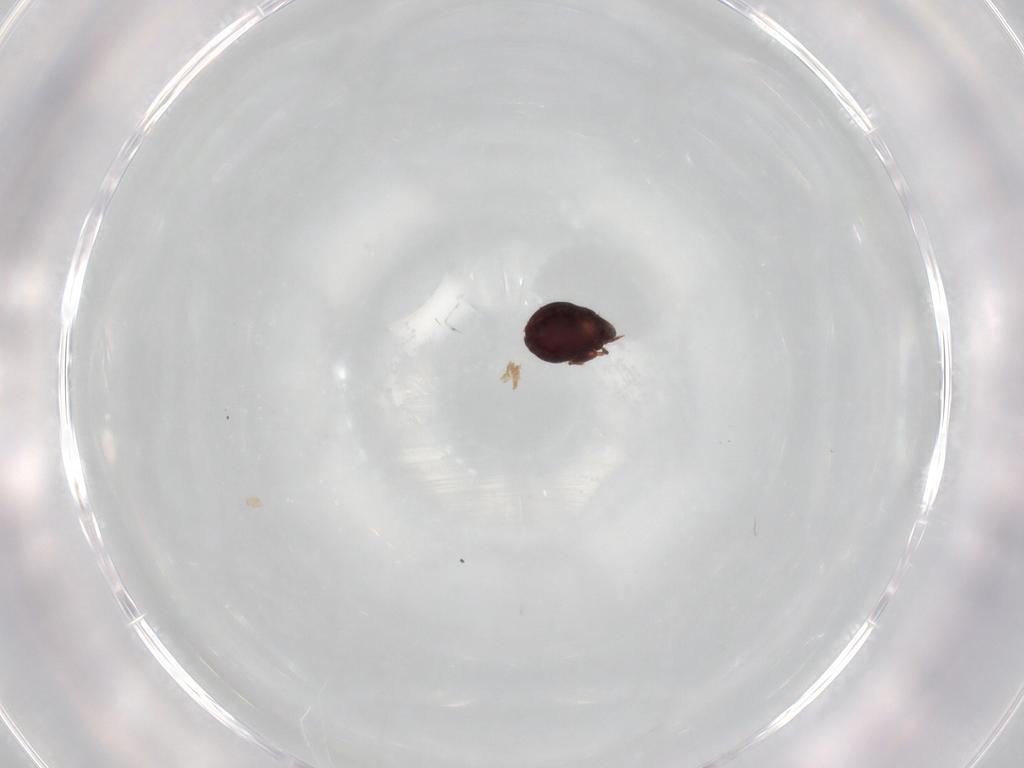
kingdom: Animalia
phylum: Arthropoda
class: Arachnida
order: Sarcoptiformes
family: Humerobatidae
